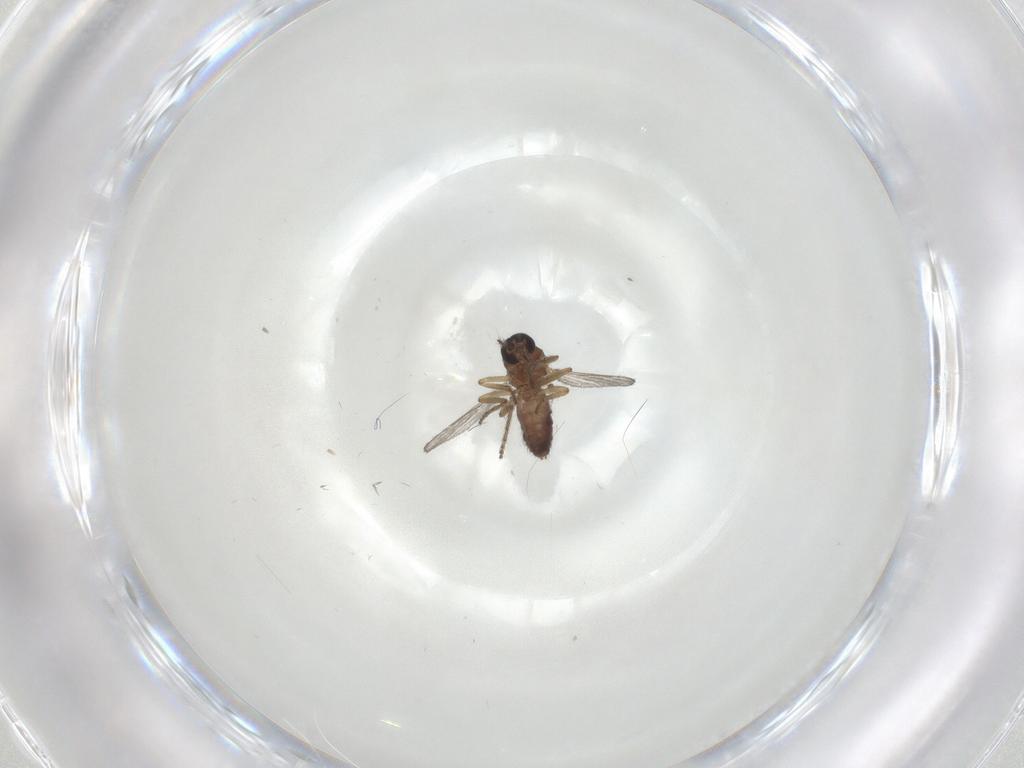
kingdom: Animalia
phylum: Arthropoda
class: Insecta
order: Diptera
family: Ceratopogonidae
